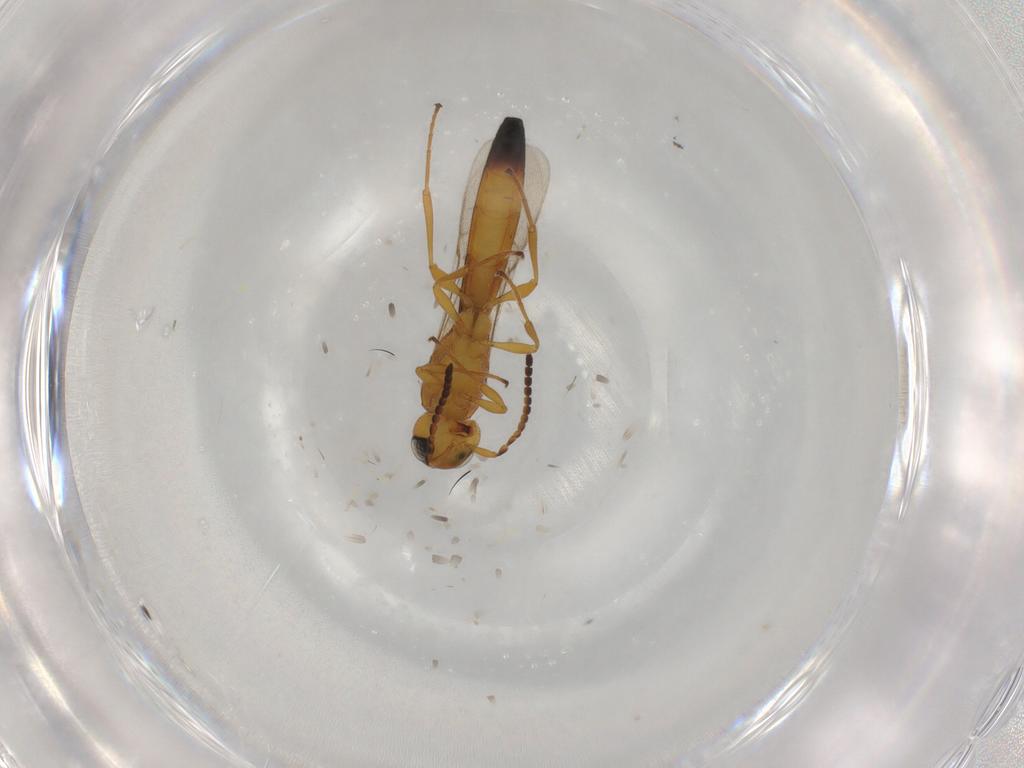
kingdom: Animalia
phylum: Arthropoda
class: Insecta
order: Hymenoptera
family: Scelionidae
